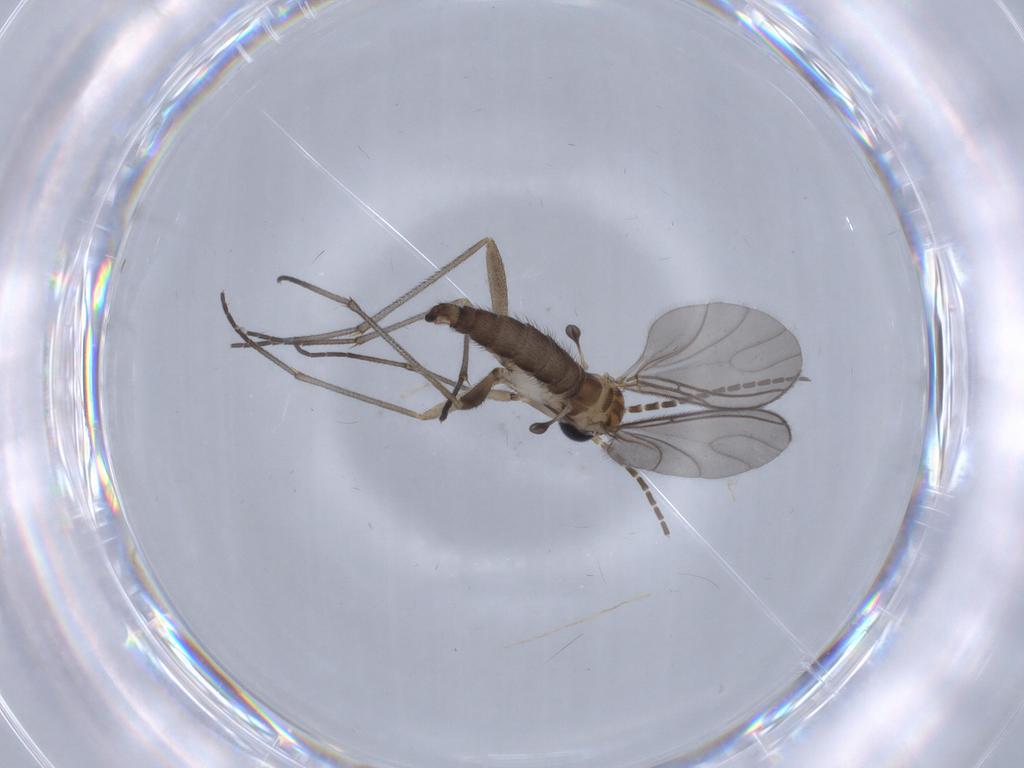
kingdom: Animalia
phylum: Arthropoda
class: Insecta
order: Diptera
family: Sciaridae
